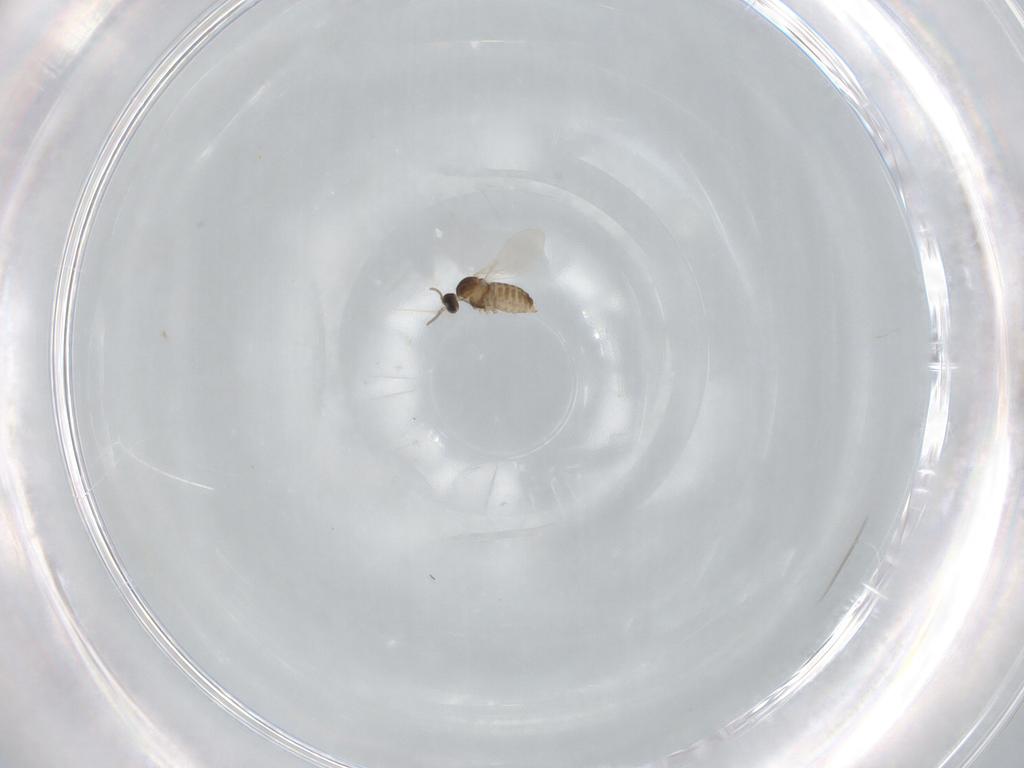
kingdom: Animalia
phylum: Arthropoda
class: Insecta
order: Diptera
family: Cecidomyiidae
